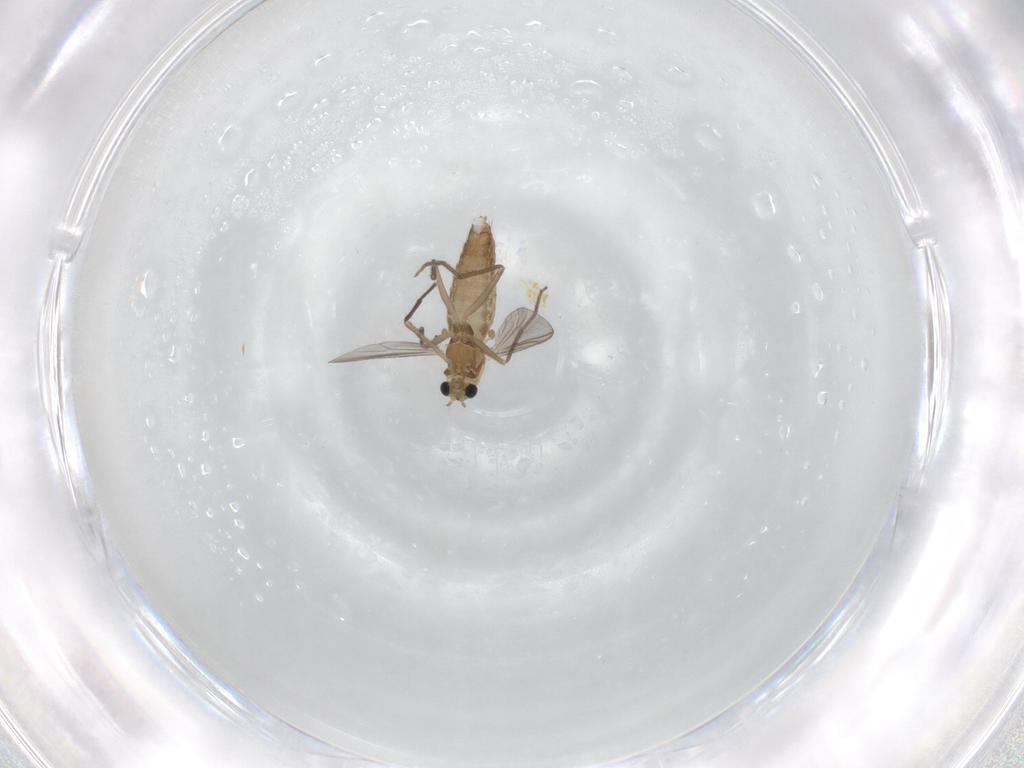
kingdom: Animalia
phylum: Arthropoda
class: Insecta
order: Diptera
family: Chironomidae
